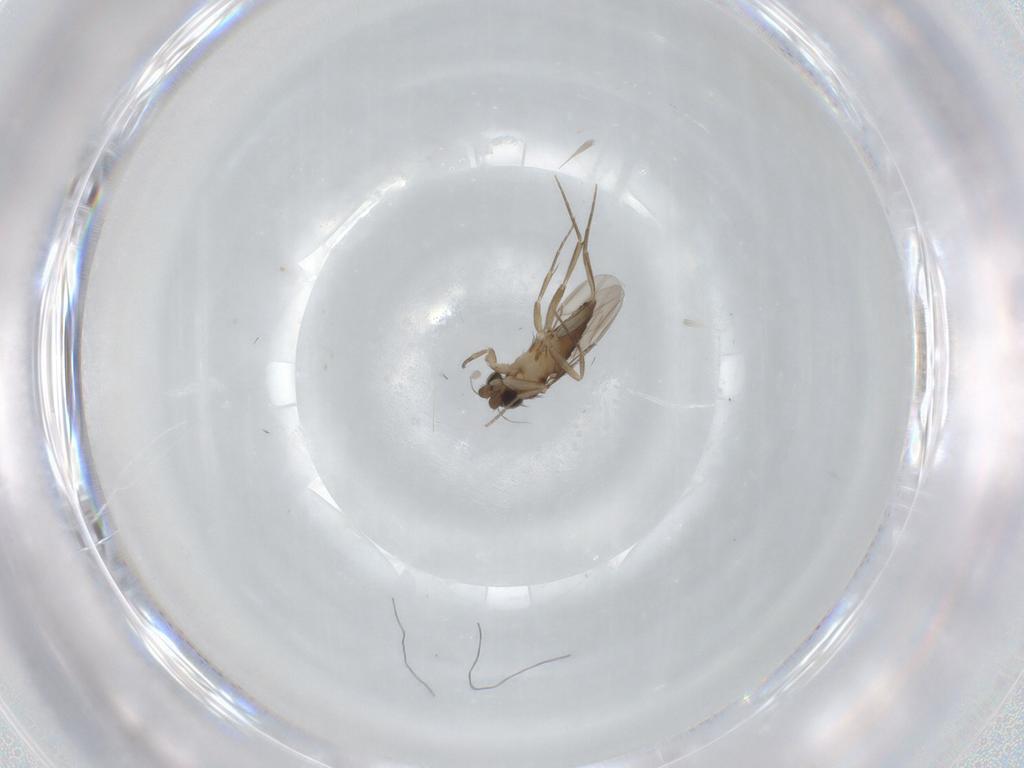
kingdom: Animalia
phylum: Arthropoda
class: Insecta
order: Diptera
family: Phoridae
